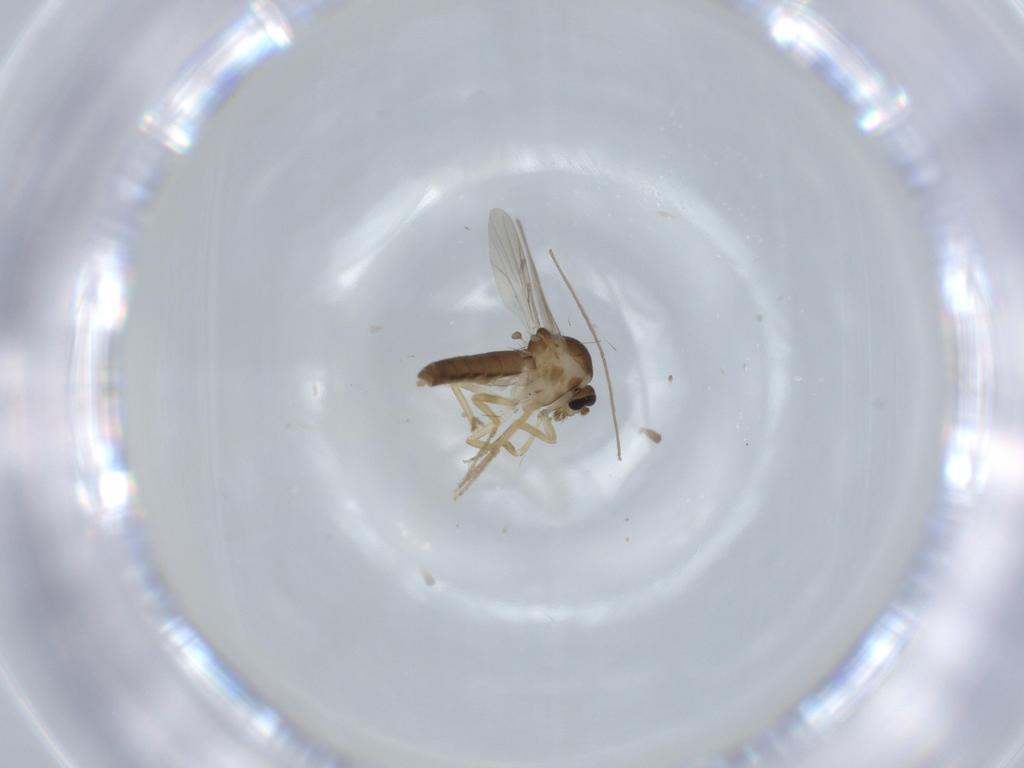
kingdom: Animalia
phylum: Arthropoda
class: Insecta
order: Diptera
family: Ceratopogonidae
